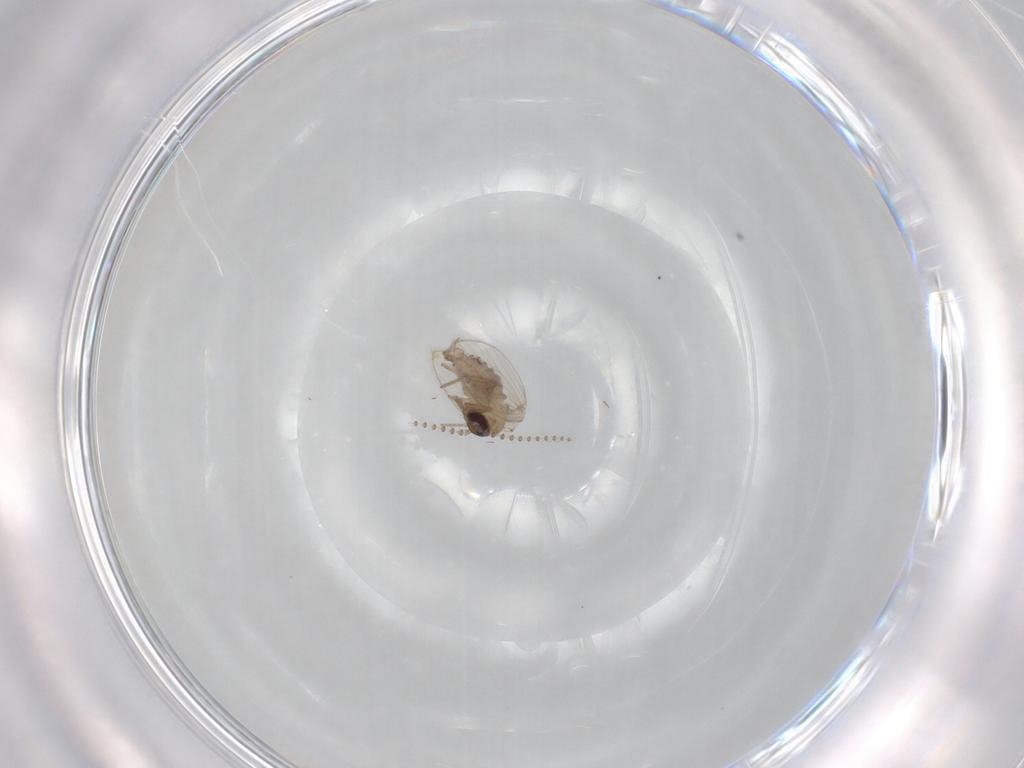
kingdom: Animalia
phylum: Arthropoda
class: Insecta
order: Diptera
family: Psychodidae
